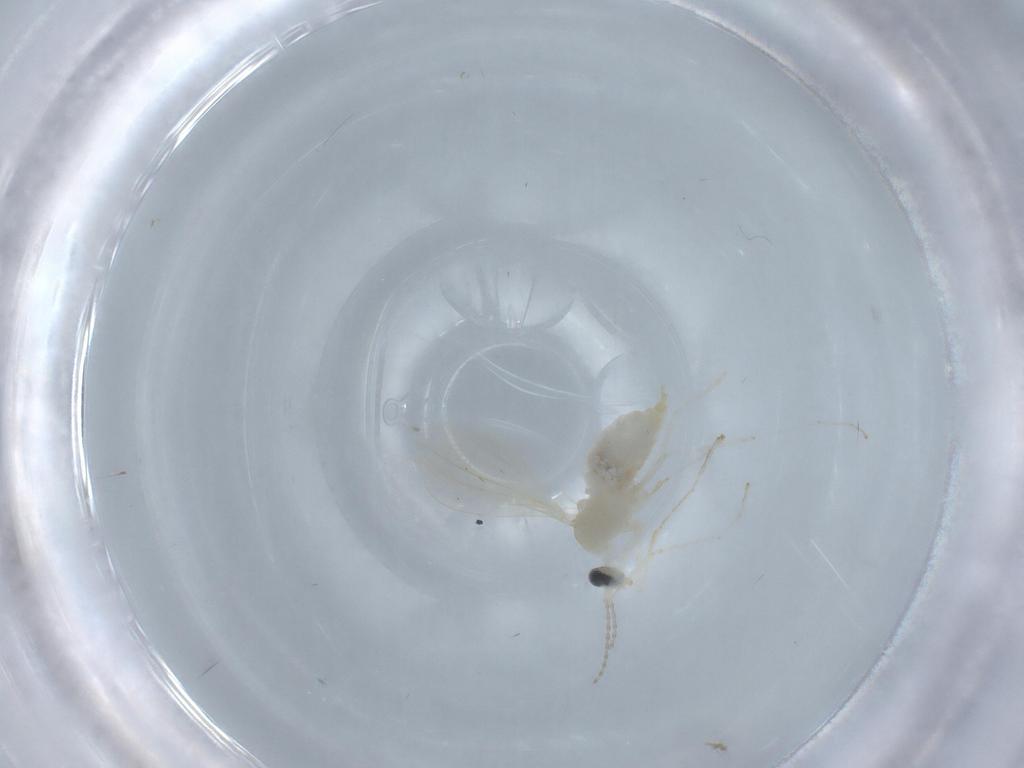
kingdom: Animalia
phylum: Arthropoda
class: Insecta
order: Diptera
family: Cecidomyiidae
